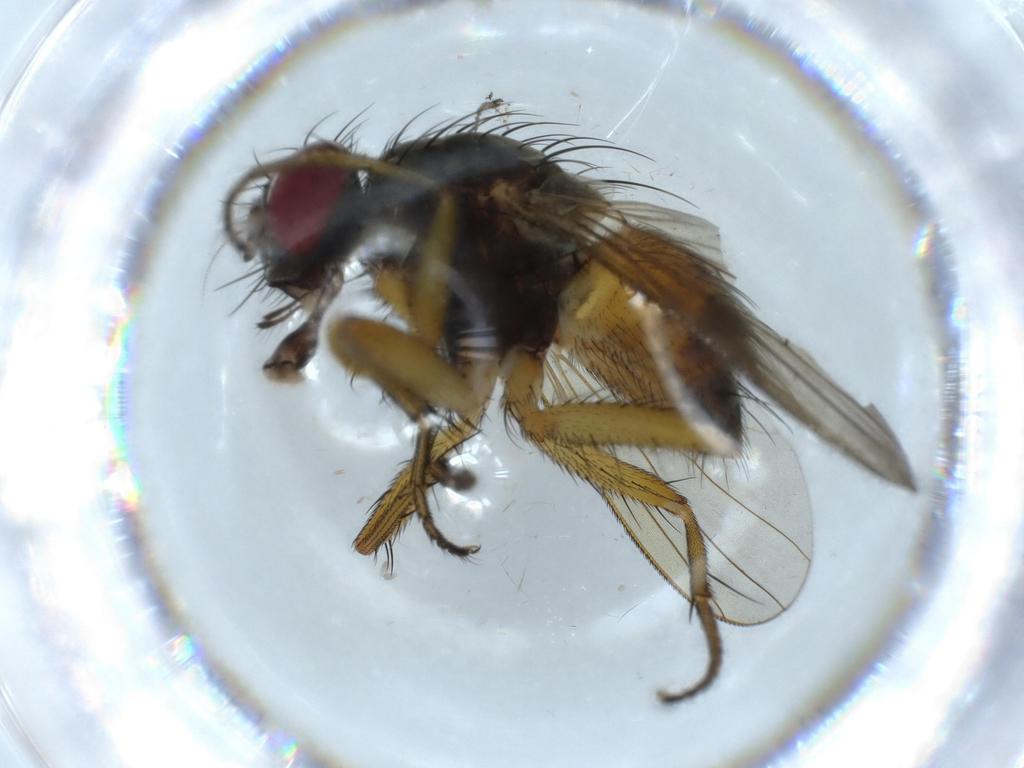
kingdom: Animalia
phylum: Arthropoda
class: Insecta
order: Diptera
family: Muscidae
